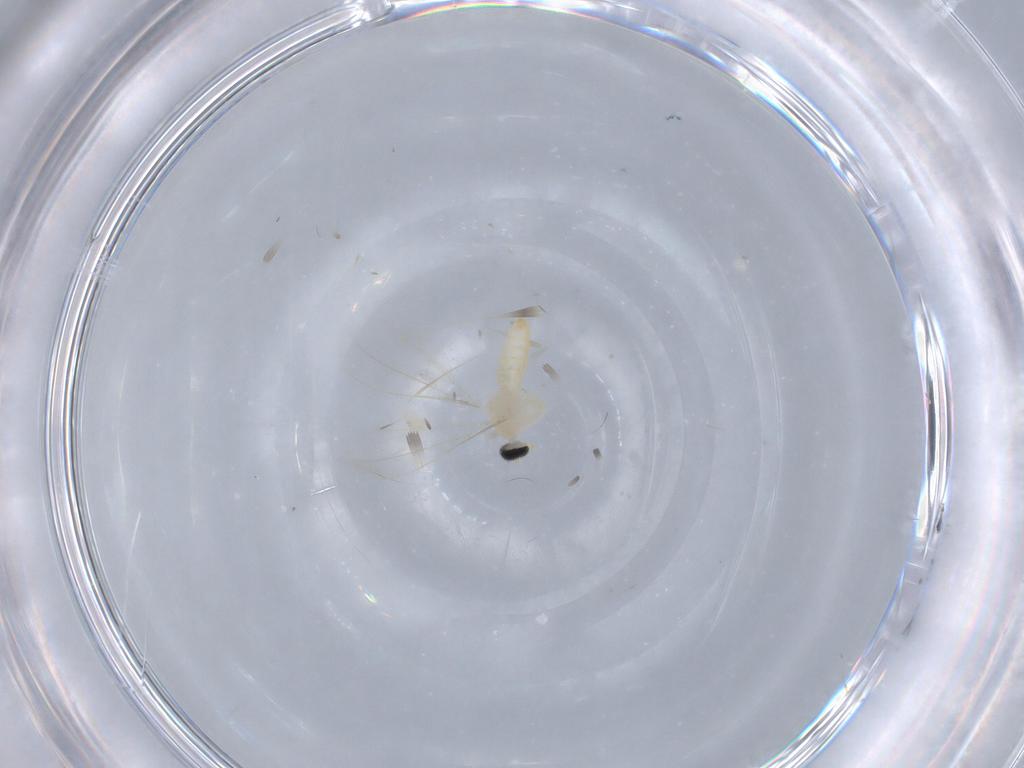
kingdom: Animalia
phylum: Arthropoda
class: Insecta
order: Diptera
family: Cecidomyiidae
